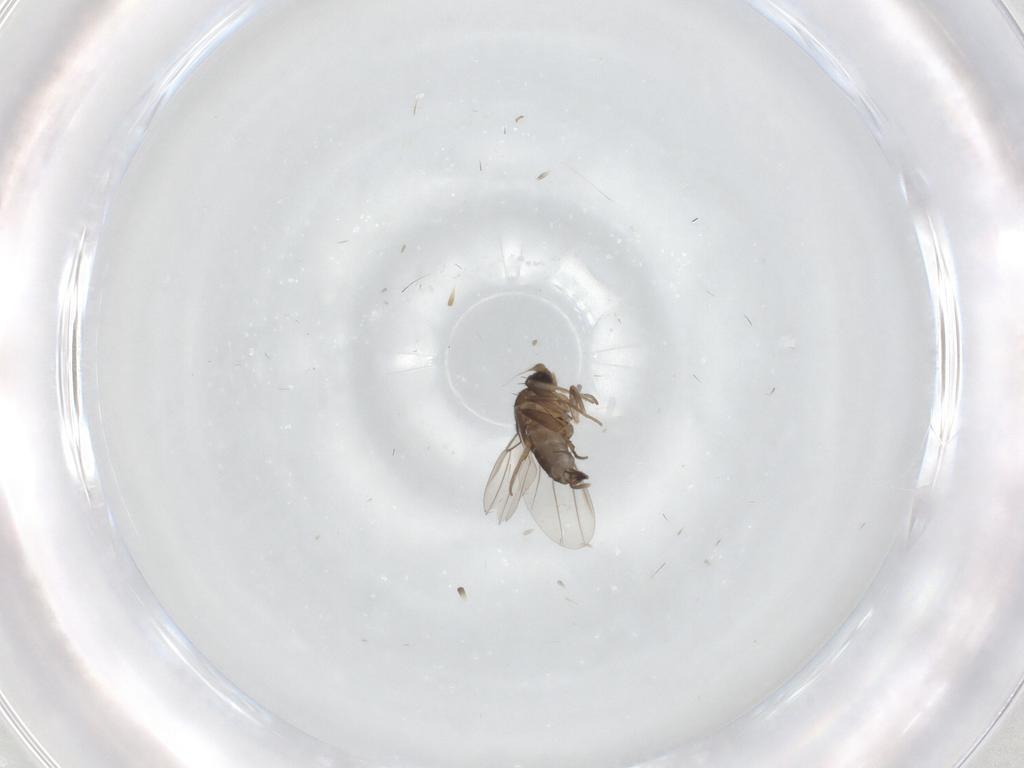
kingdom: Animalia
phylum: Arthropoda
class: Insecta
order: Diptera
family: Phoridae
